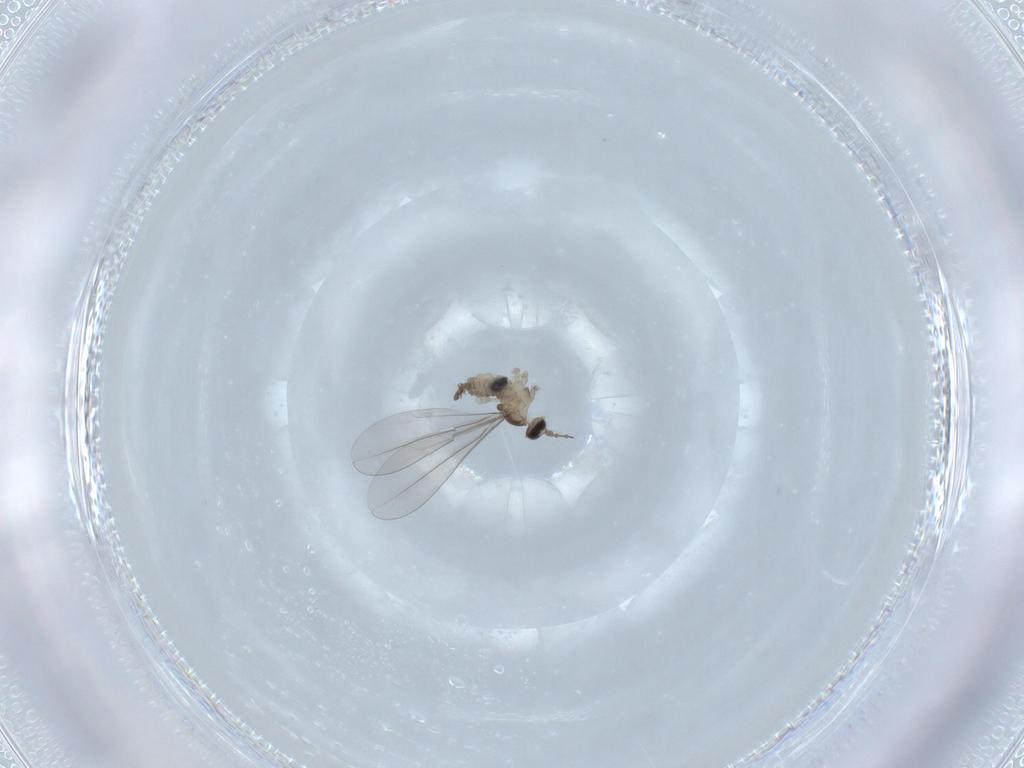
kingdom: Animalia
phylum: Arthropoda
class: Insecta
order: Diptera
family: Cecidomyiidae
